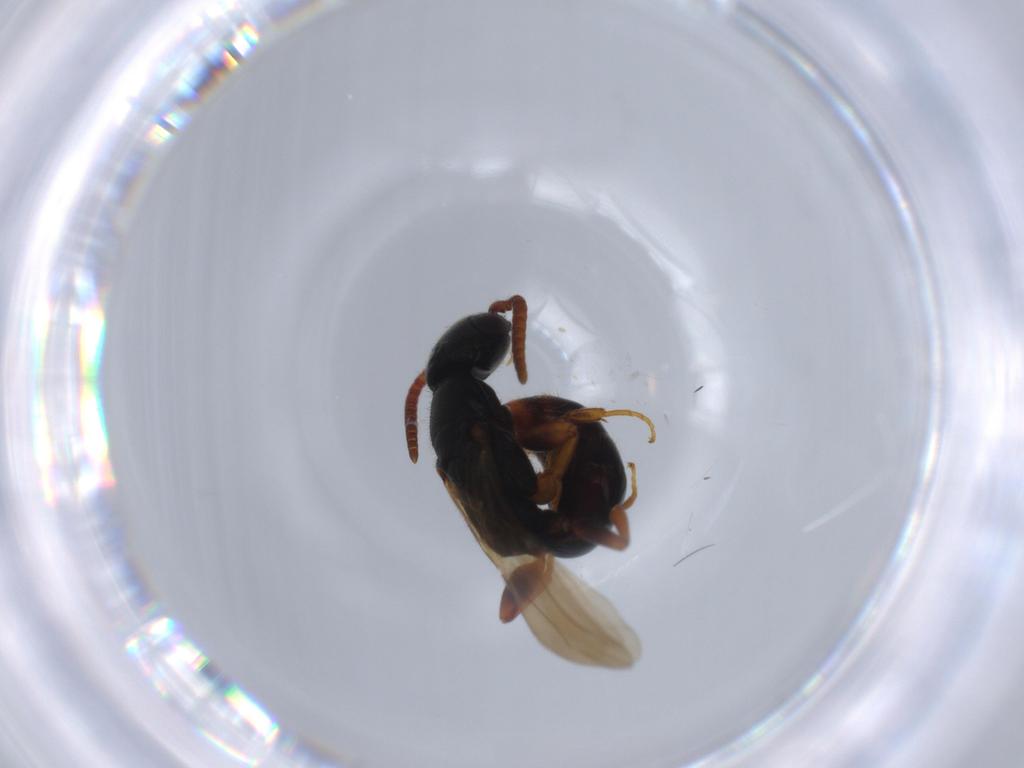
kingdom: Animalia
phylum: Arthropoda
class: Insecta
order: Hymenoptera
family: Bethylidae
